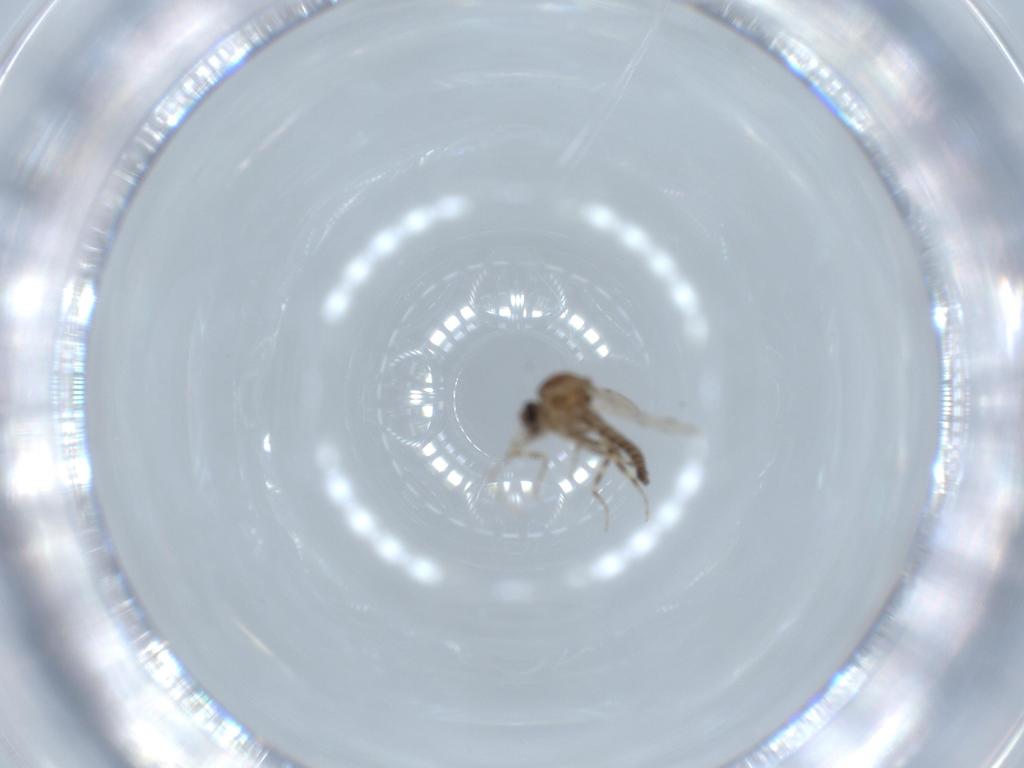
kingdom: Animalia
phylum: Arthropoda
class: Insecta
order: Diptera
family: Ceratopogonidae
